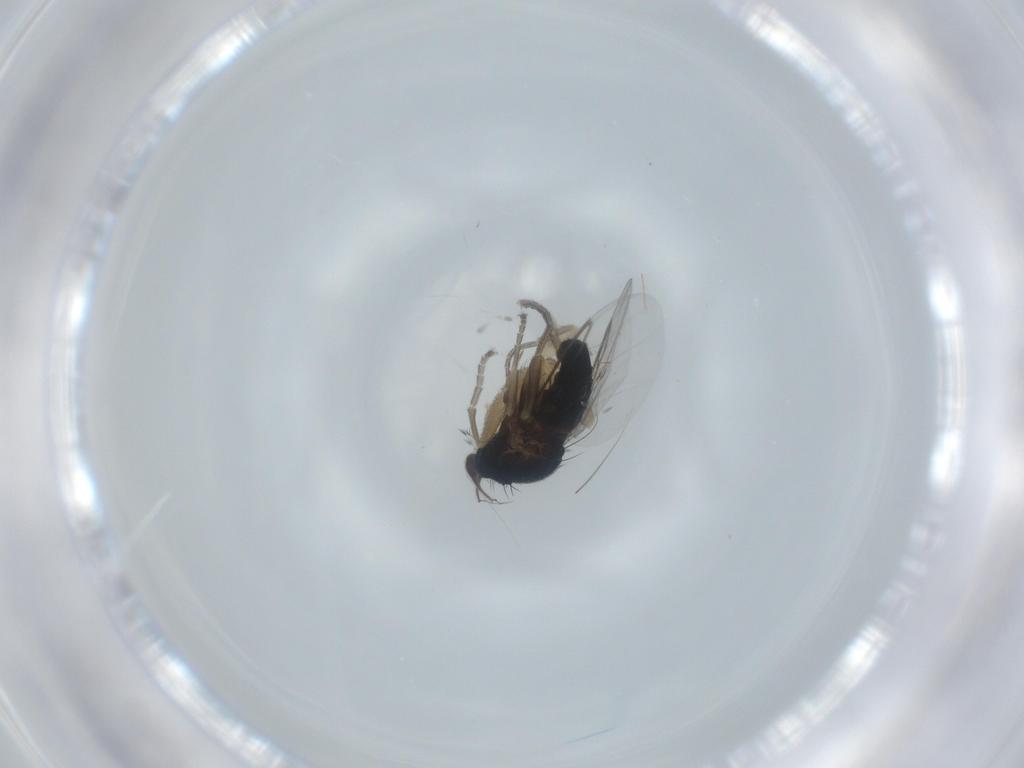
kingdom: Animalia
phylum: Arthropoda
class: Insecta
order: Diptera
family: Phoridae
